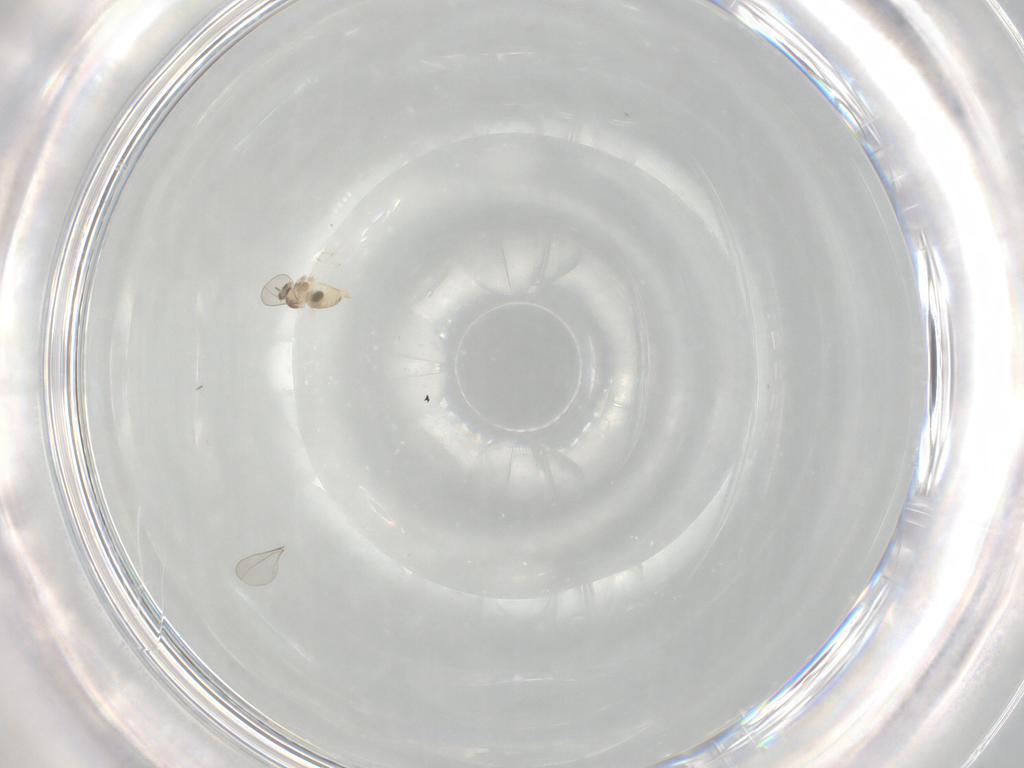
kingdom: Animalia
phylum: Arthropoda
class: Insecta
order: Diptera
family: Cecidomyiidae
